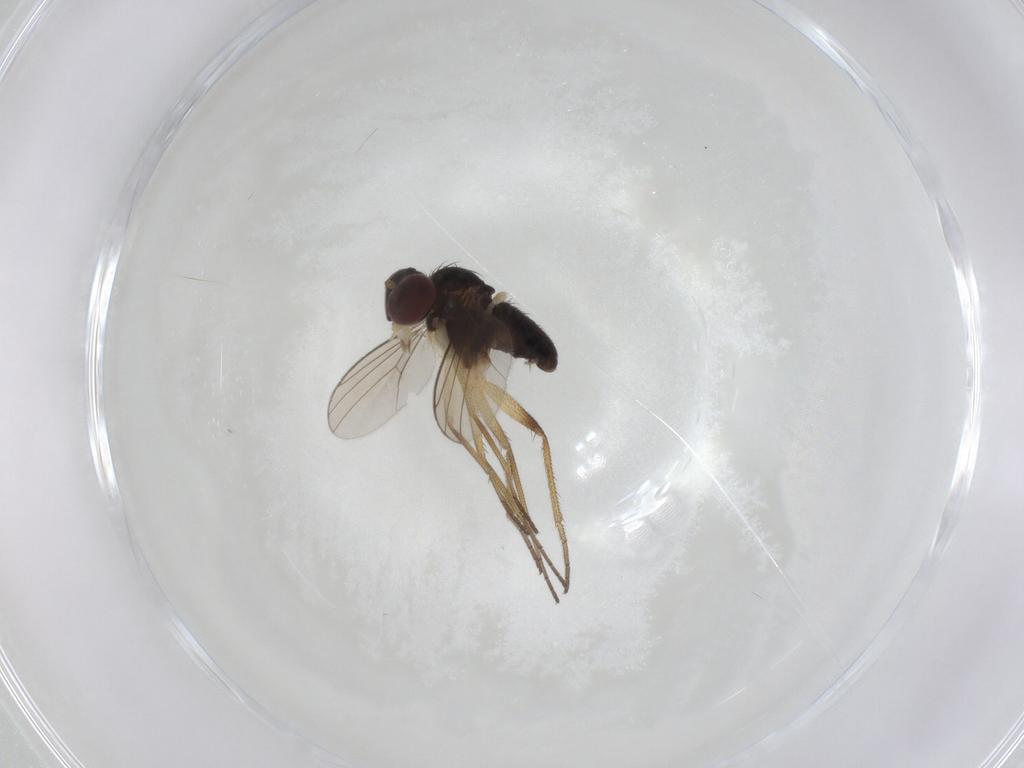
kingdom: Animalia
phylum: Arthropoda
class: Insecta
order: Diptera
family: Dolichopodidae
